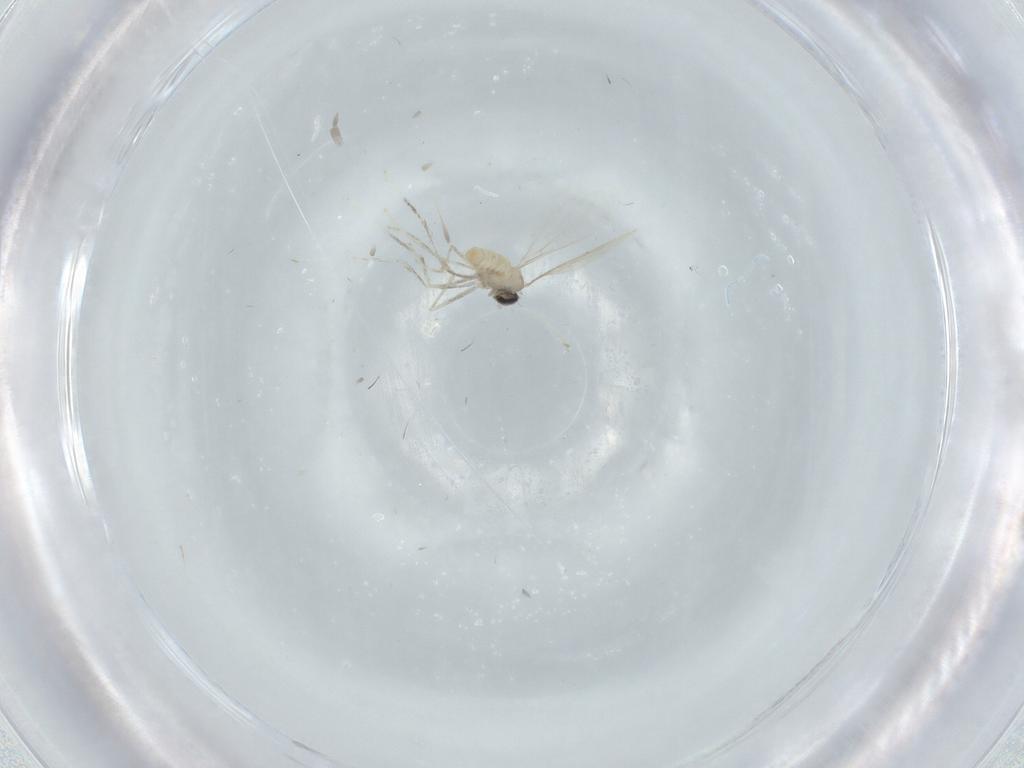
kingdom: Animalia
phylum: Arthropoda
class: Insecta
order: Diptera
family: Cecidomyiidae
